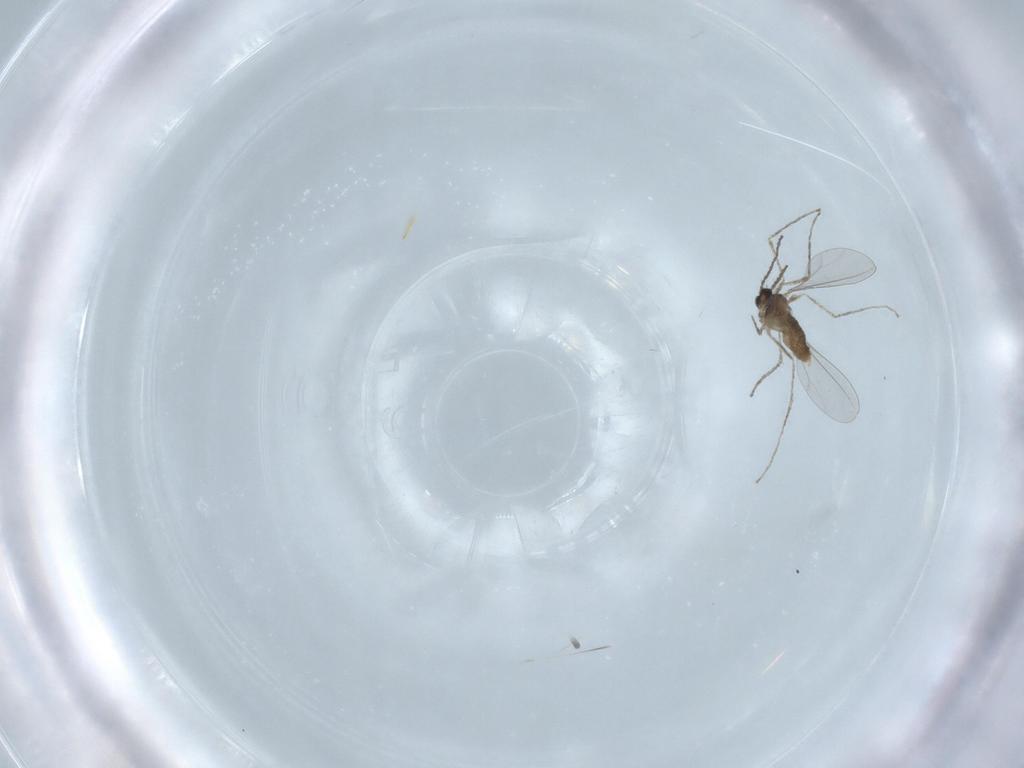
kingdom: Animalia
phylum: Arthropoda
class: Insecta
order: Diptera
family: Cecidomyiidae
